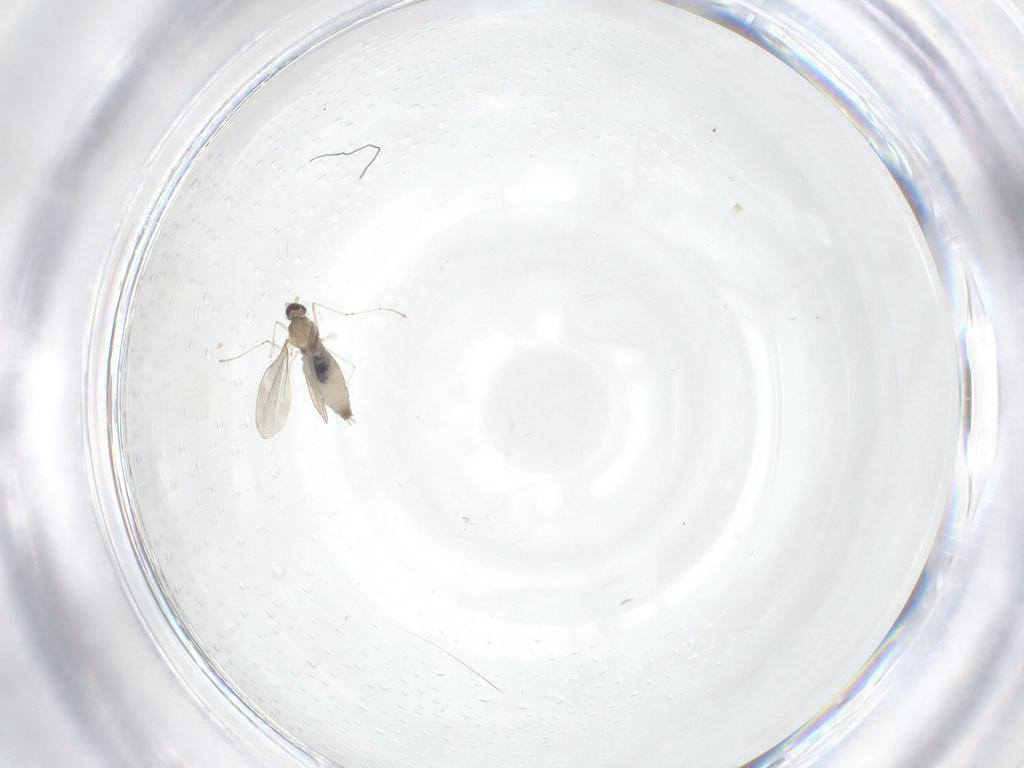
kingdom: Animalia
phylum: Arthropoda
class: Insecta
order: Diptera
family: Cecidomyiidae
